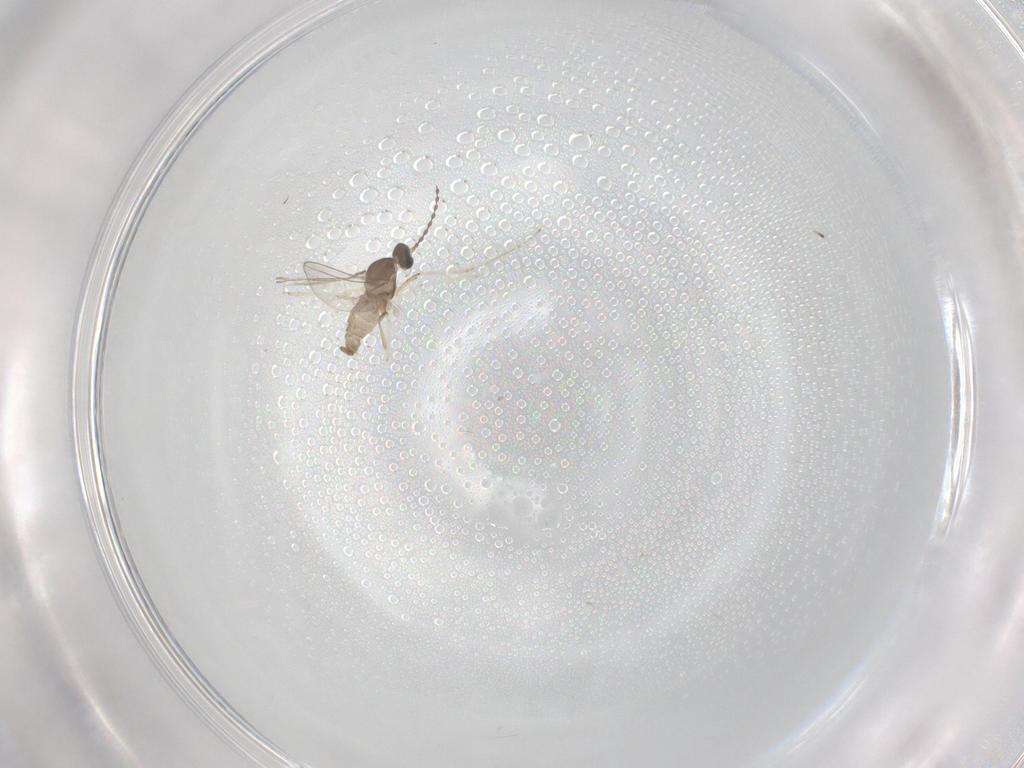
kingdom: Animalia
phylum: Arthropoda
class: Insecta
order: Diptera
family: Cecidomyiidae
